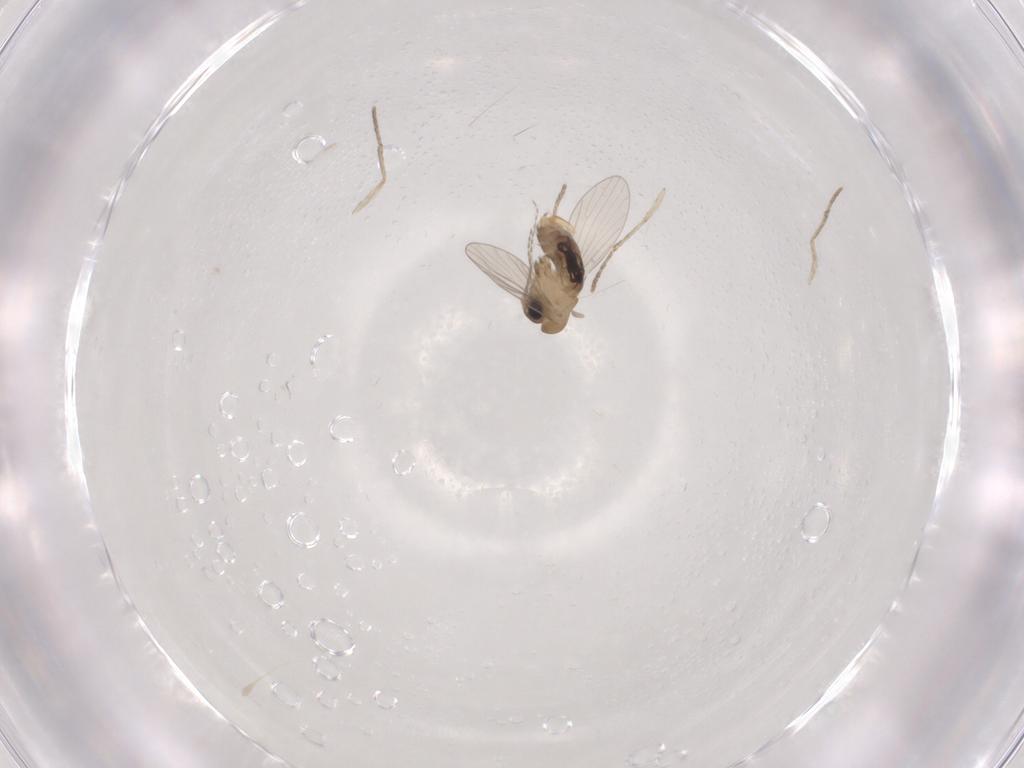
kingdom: Animalia
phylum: Arthropoda
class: Insecta
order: Diptera
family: Psychodidae
